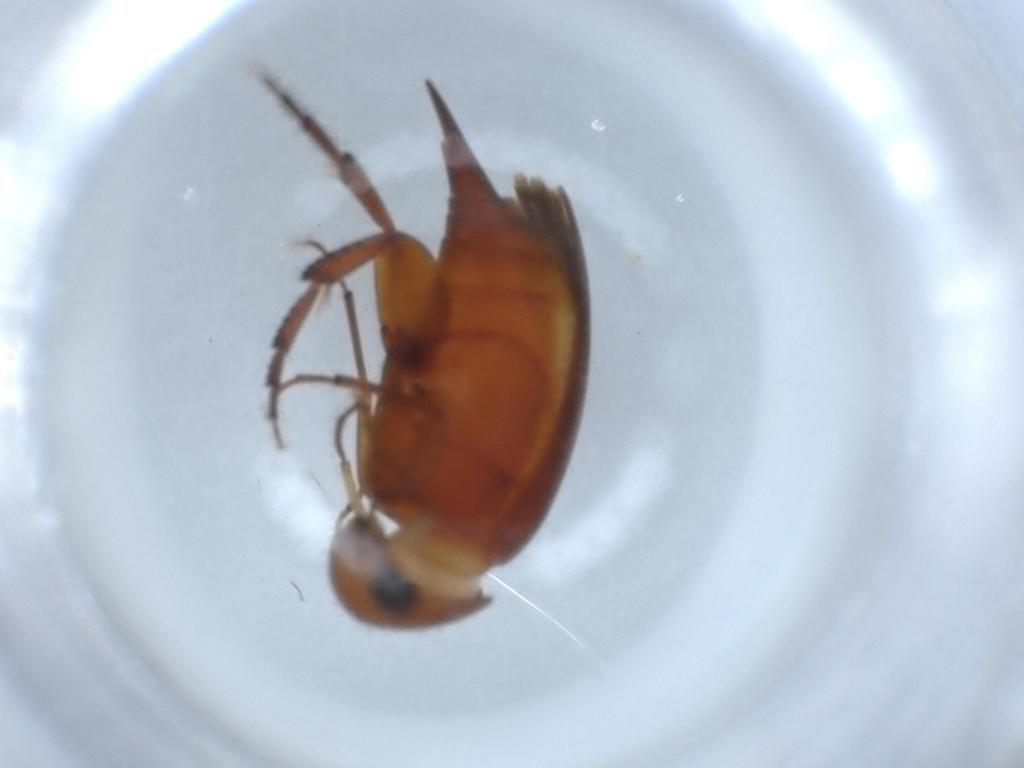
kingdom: Animalia
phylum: Arthropoda
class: Insecta
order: Coleoptera
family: Mordellidae
